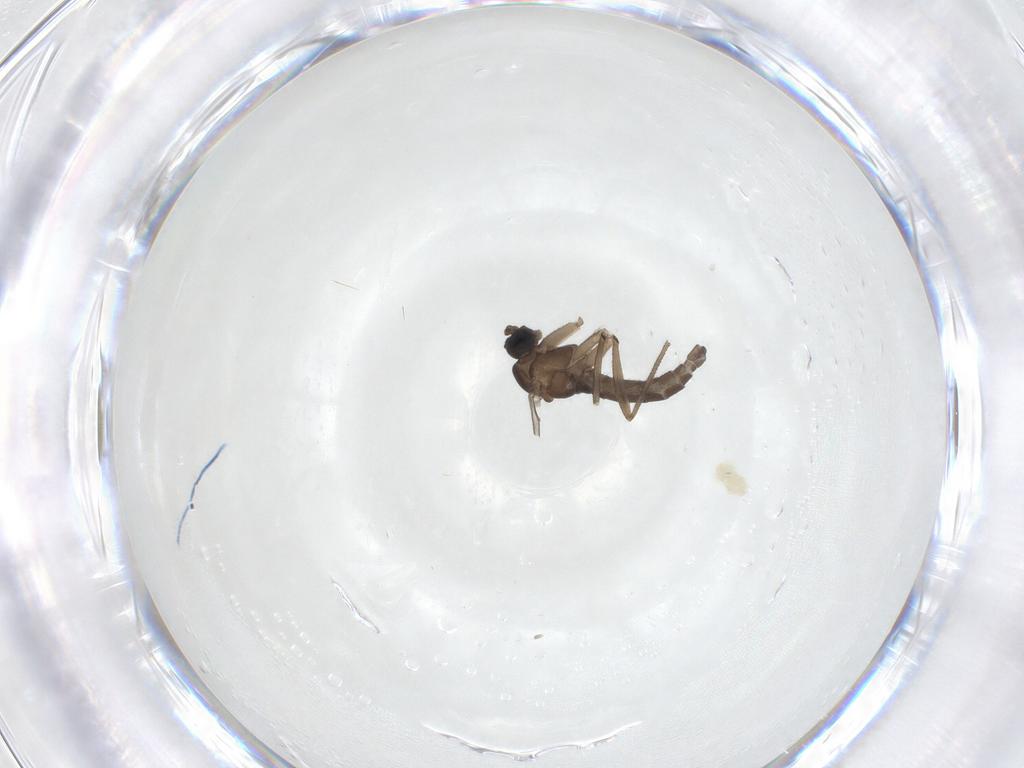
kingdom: Animalia
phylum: Arthropoda
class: Insecta
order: Diptera
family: Sciaridae
